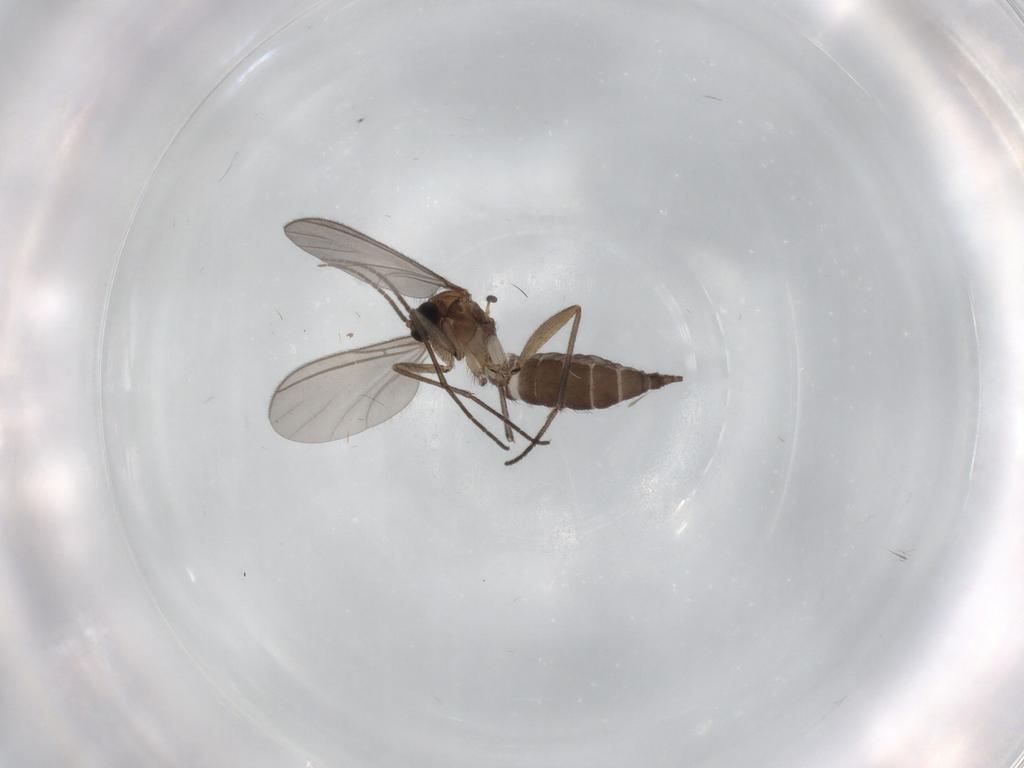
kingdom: Animalia
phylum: Arthropoda
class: Insecta
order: Diptera
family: Sciaridae
